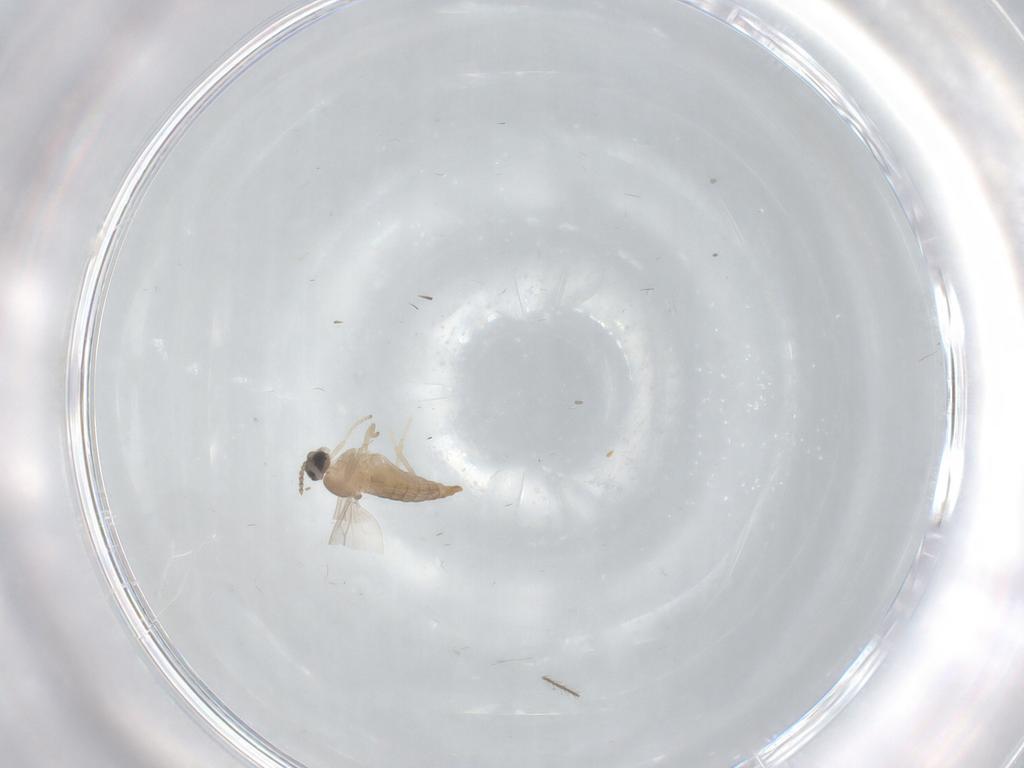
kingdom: Animalia
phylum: Arthropoda
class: Insecta
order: Diptera
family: Cecidomyiidae
